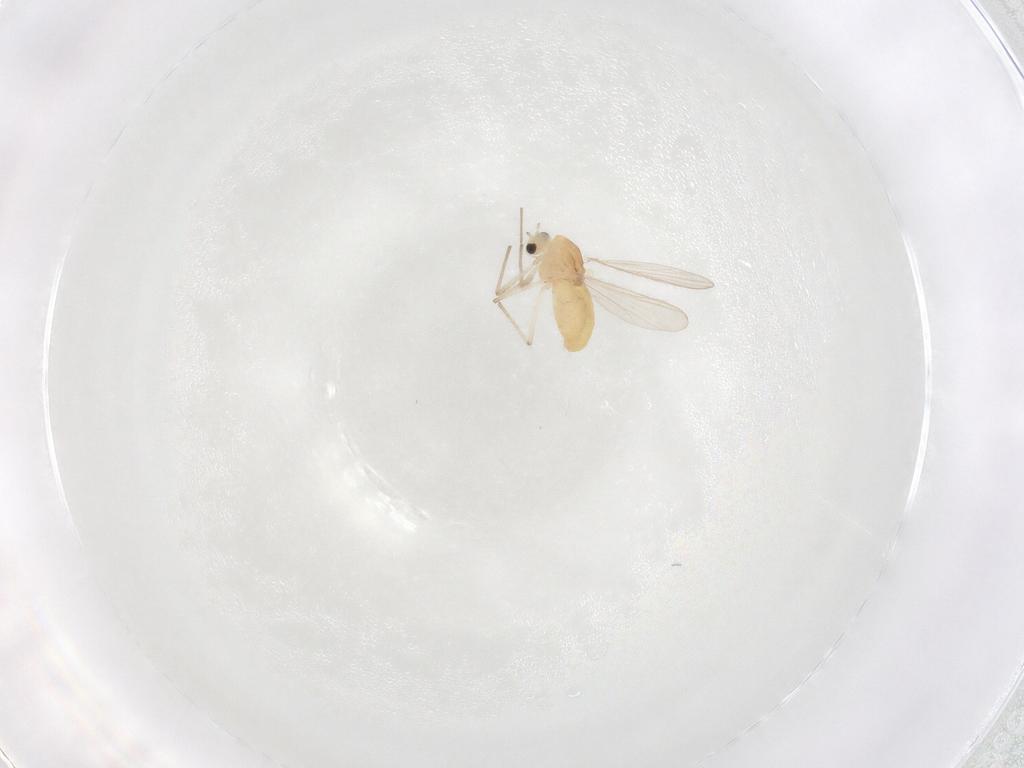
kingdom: Animalia
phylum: Arthropoda
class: Insecta
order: Diptera
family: Chironomidae
